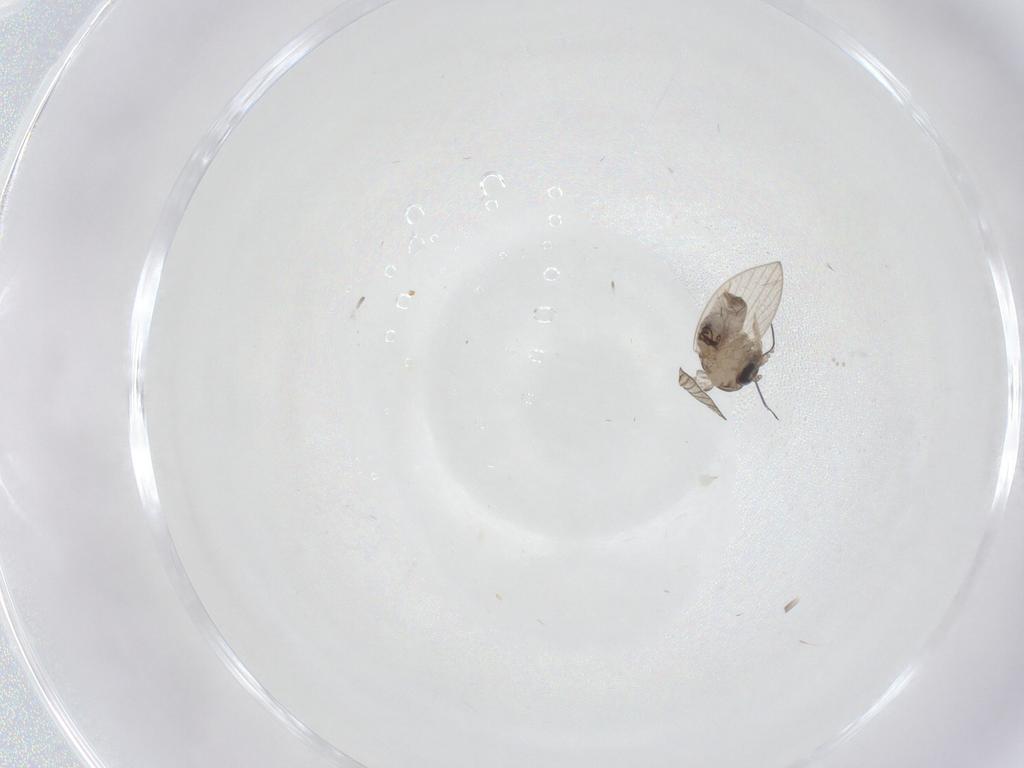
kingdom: Animalia
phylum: Arthropoda
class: Insecta
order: Diptera
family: Psychodidae
